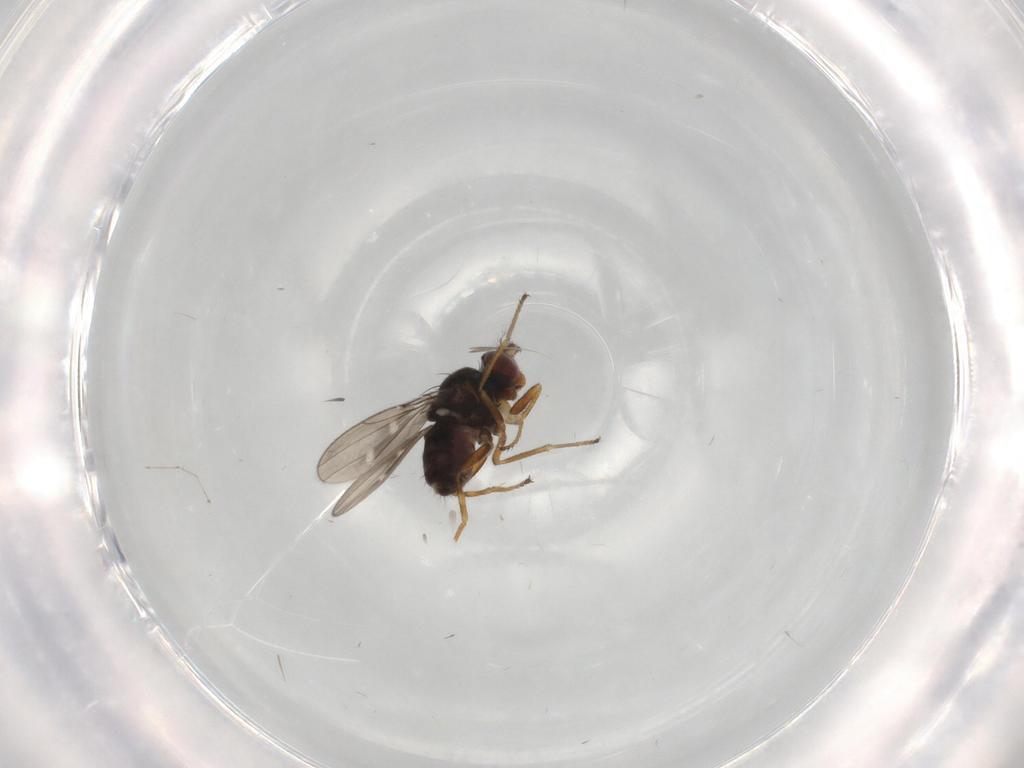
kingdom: Animalia
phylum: Arthropoda
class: Insecta
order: Diptera
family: Ephydridae
